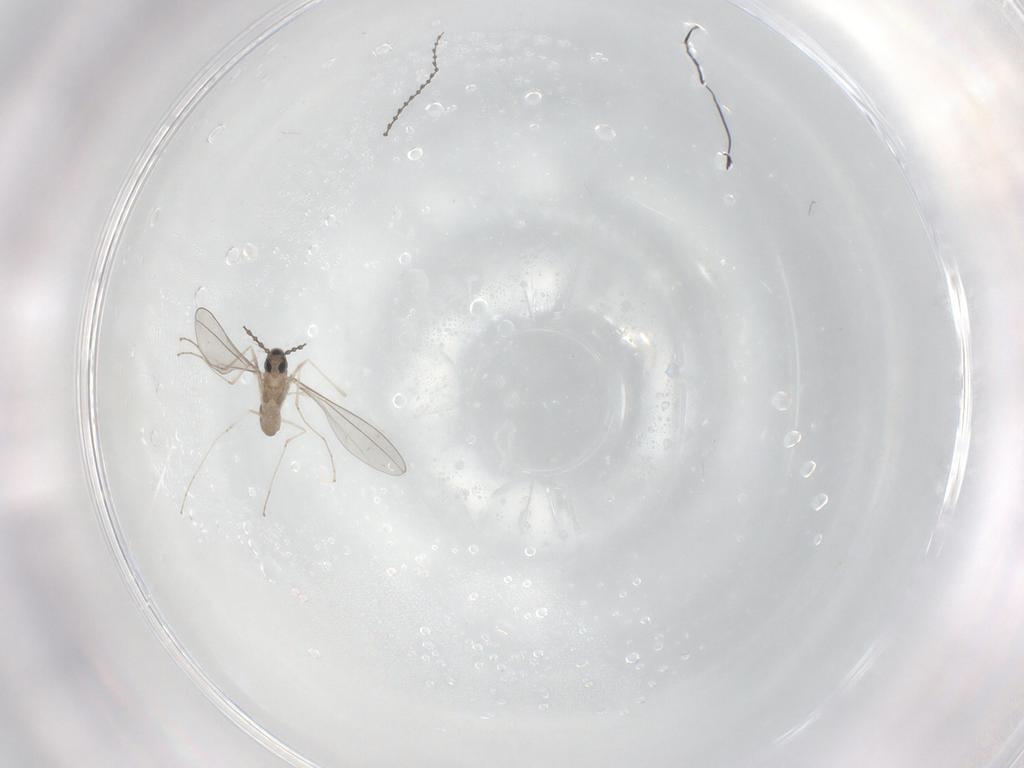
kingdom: Animalia
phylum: Arthropoda
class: Insecta
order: Diptera
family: Cecidomyiidae
